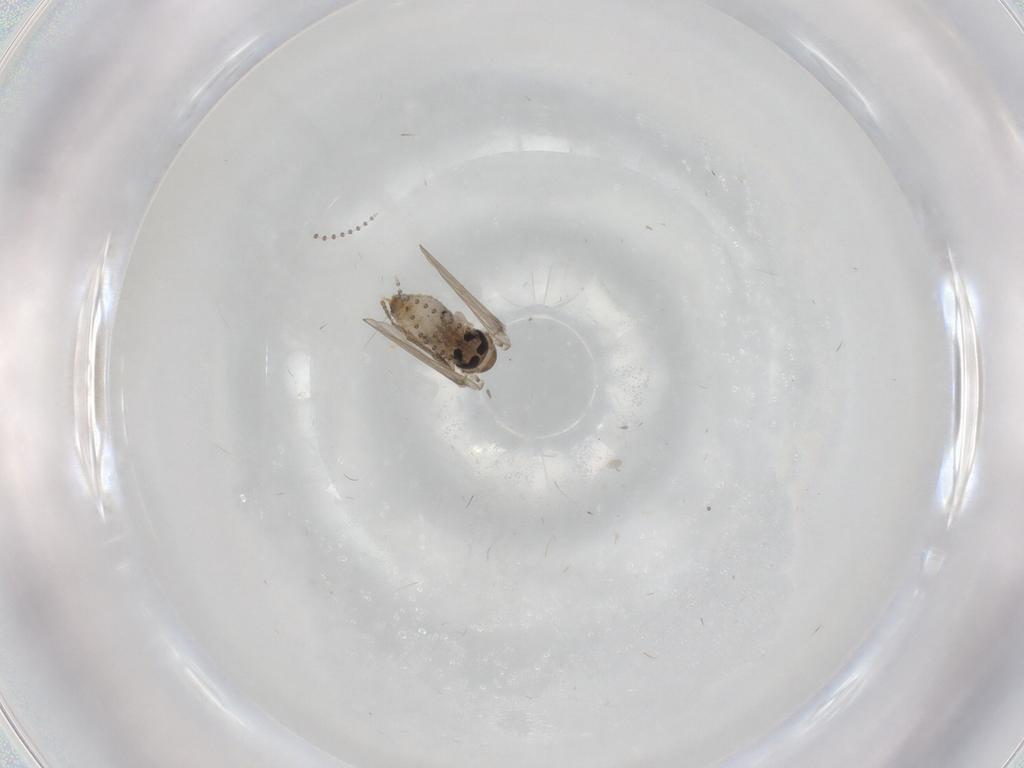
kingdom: Animalia
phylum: Arthropoda
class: Insecta
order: Diptera
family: Psychodidae
